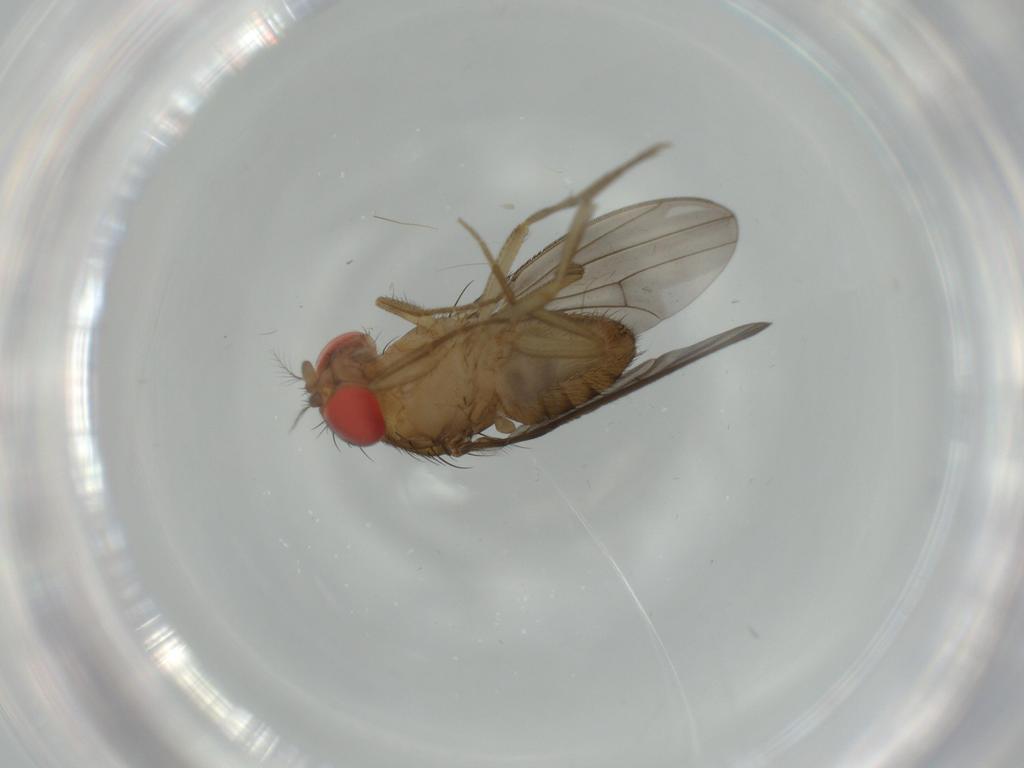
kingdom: Animalia
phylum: Arthropoda
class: Insecta
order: Diptera
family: Drosophilidae
